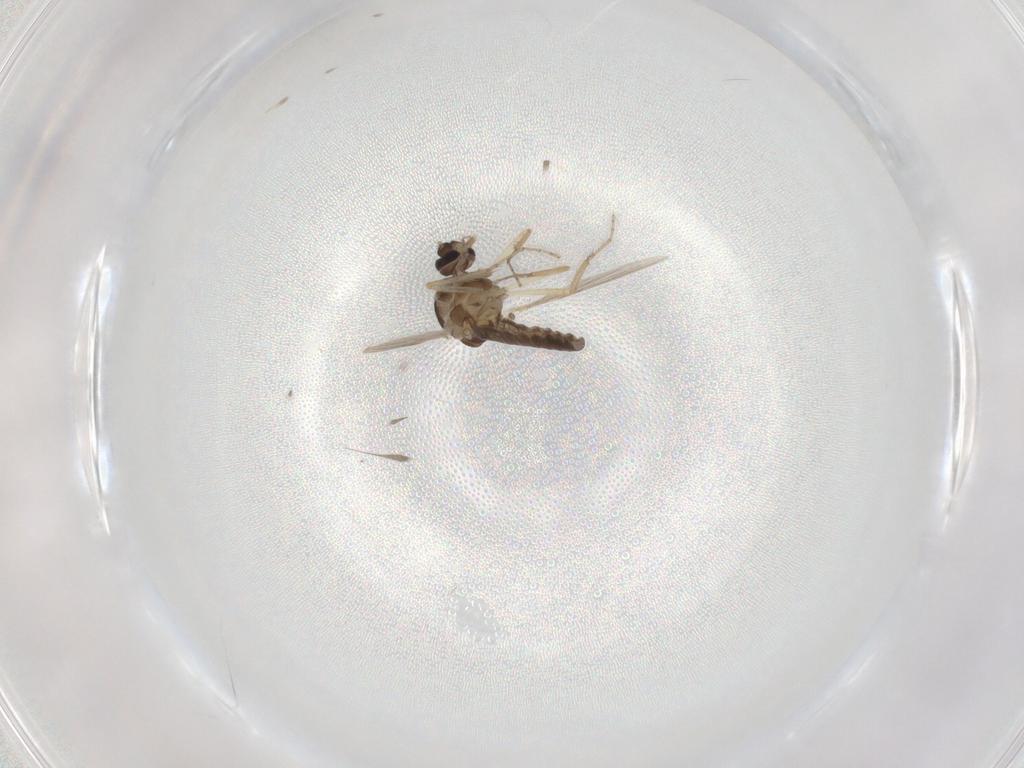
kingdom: Animalia
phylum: Arthropoda
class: Insecta
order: Diptera
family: Ceratopogonidae
